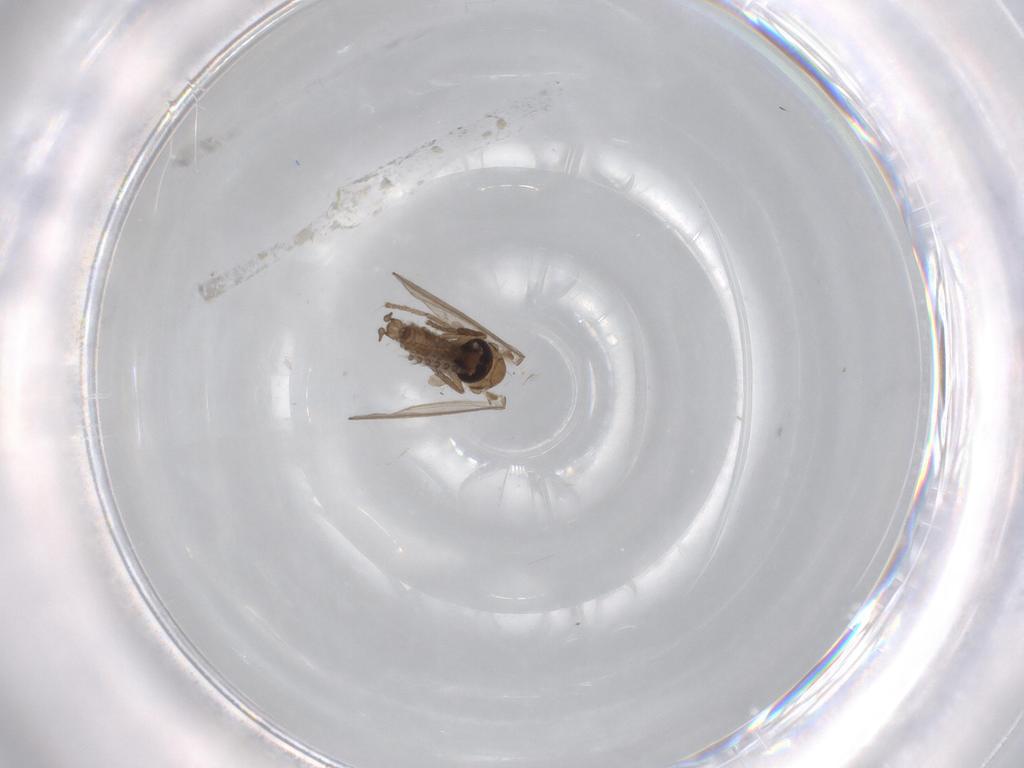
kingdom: Animalia
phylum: Arthropoda
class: Insecta
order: Diptera
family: Psychodidae
